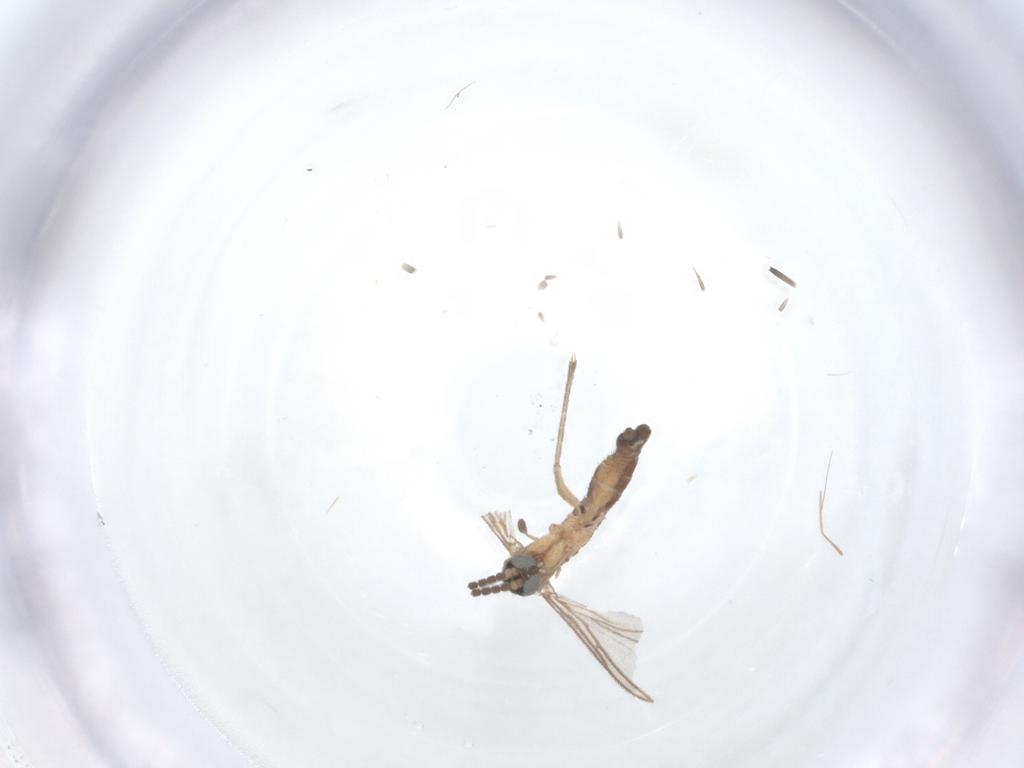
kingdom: Animalia
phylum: Arthropoda
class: Insecta
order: Diptera
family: Sciaridae
